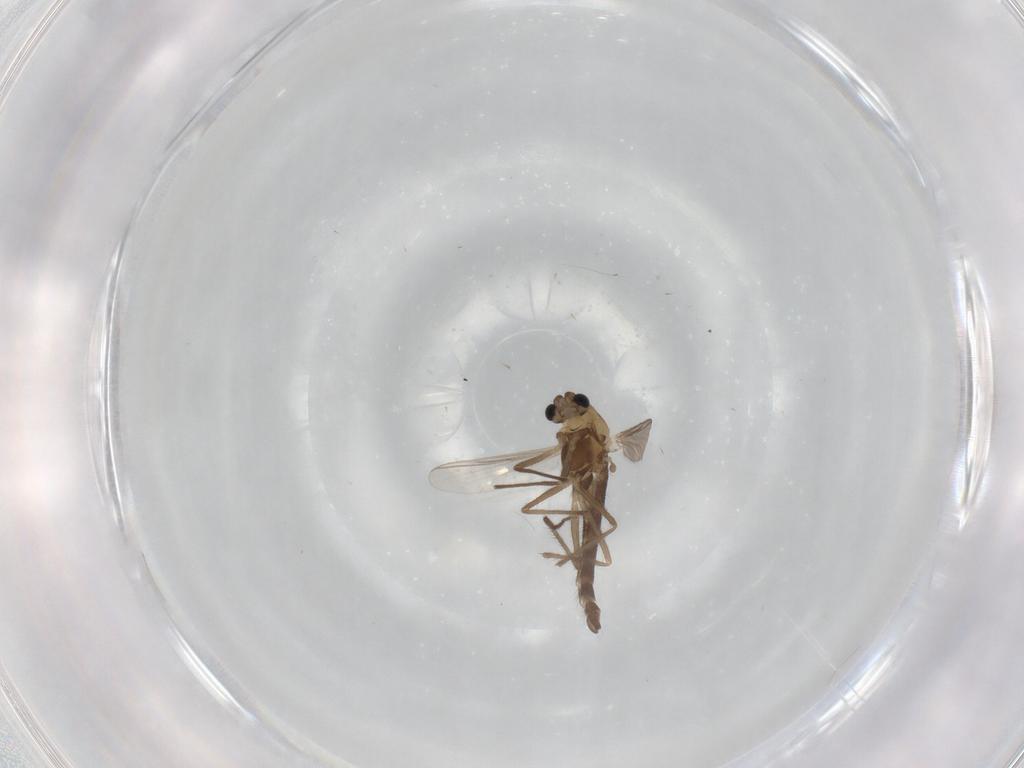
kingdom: Animalia
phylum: Arthropoda
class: Insecta
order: Diptera
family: Chironomidae
